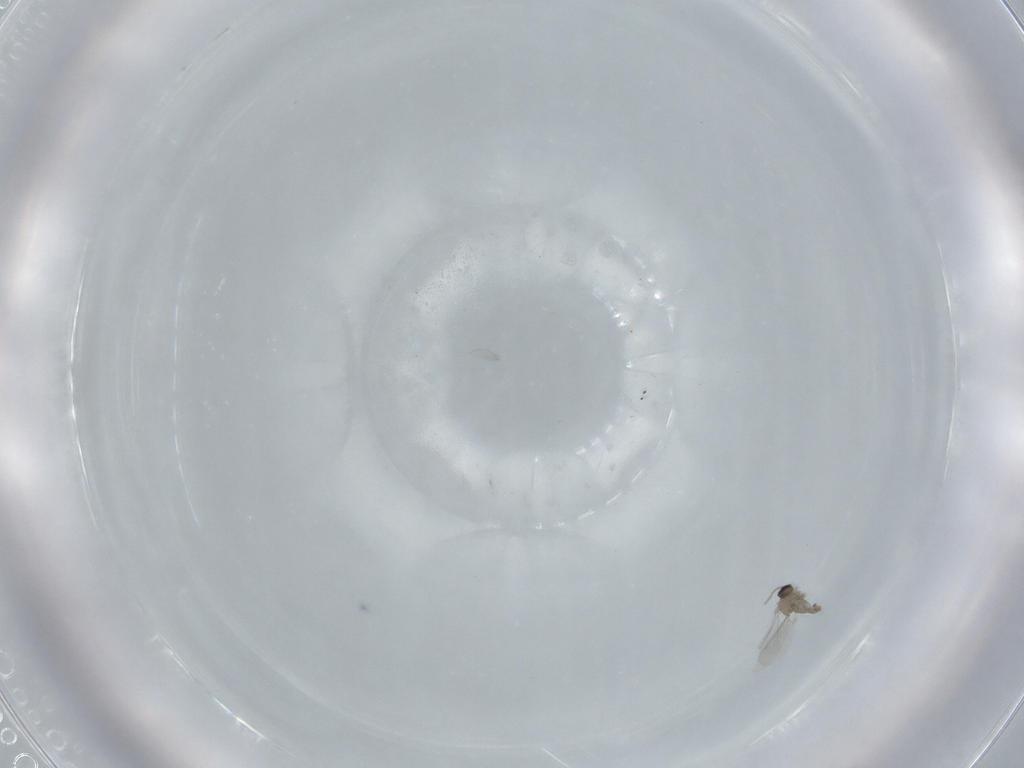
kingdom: Animalia
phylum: Arthropoda
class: Insecta
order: Diptera
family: Cecidomyiidae
